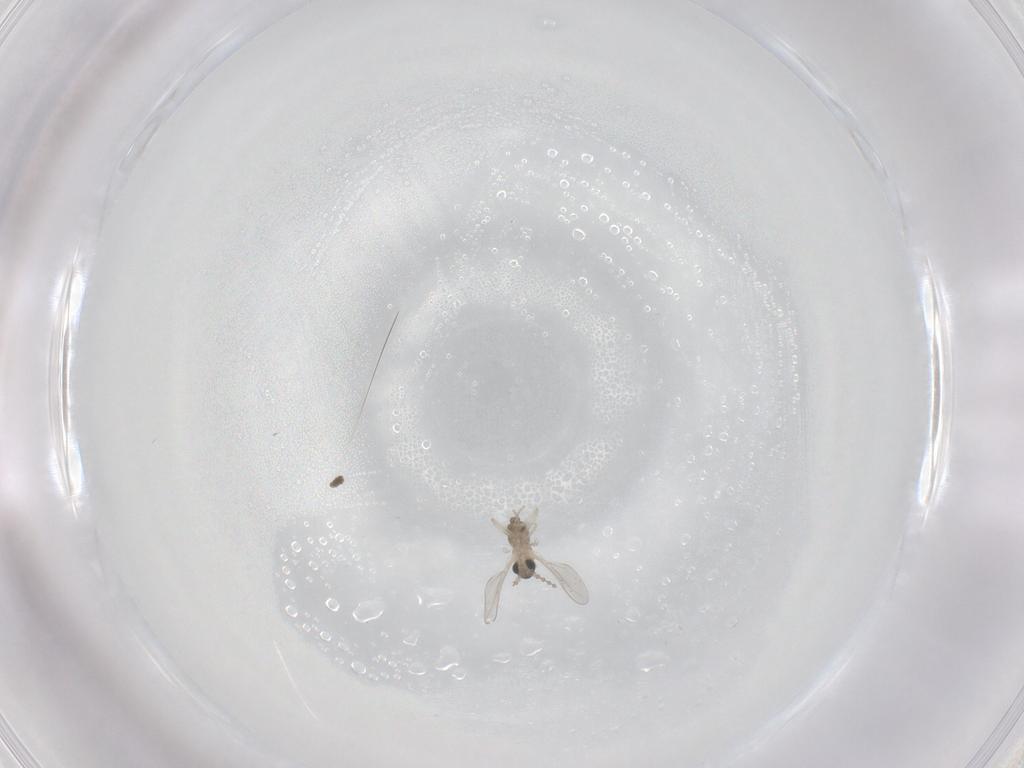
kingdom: Animalia
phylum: Arthropoda
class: Insecta
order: Diptera
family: Cecidomyiidae
